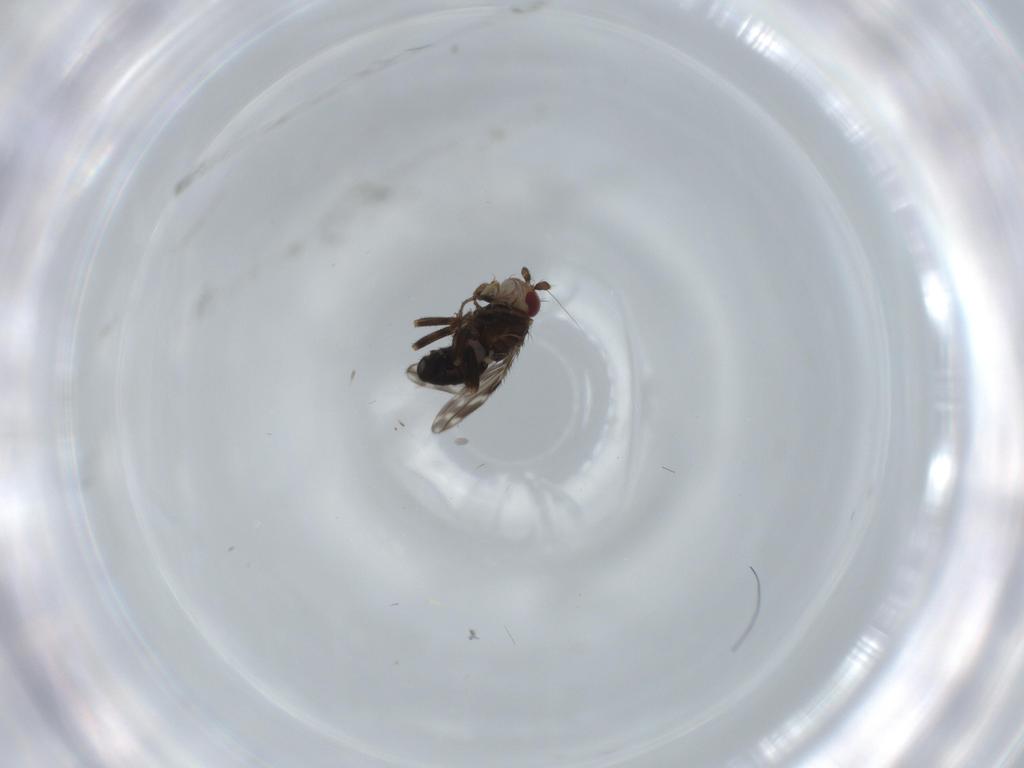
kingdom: Animalia
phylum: Arthropoda
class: Insecta
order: Diptera
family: Sphaeroceridae
